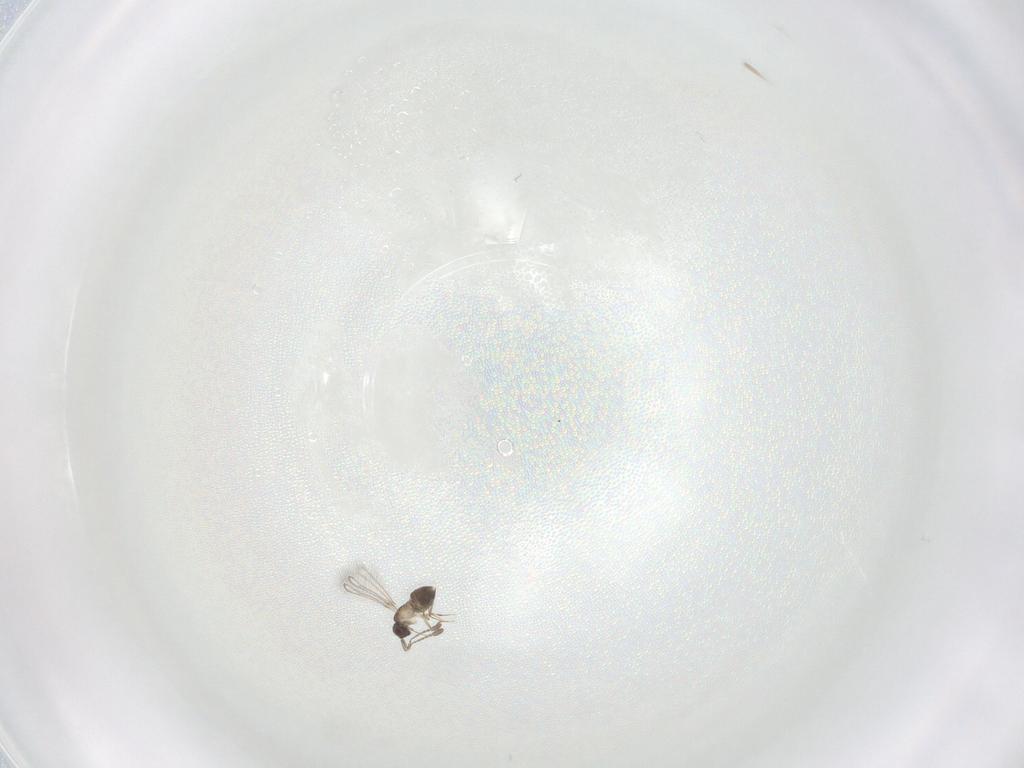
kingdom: Animalia
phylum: Arthropoda
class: Insecta
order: Hymenoptera
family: Mymaridae
